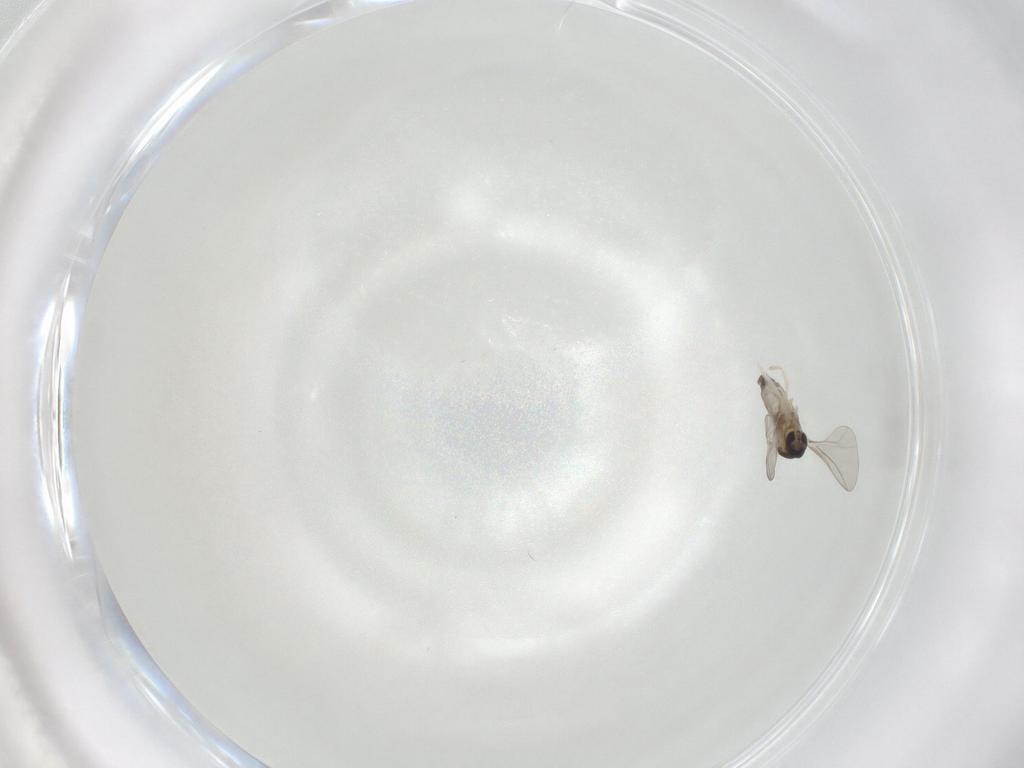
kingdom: Animalia
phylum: Arthropoda
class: Insecta
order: Diptera
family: Cecidomyiidae
